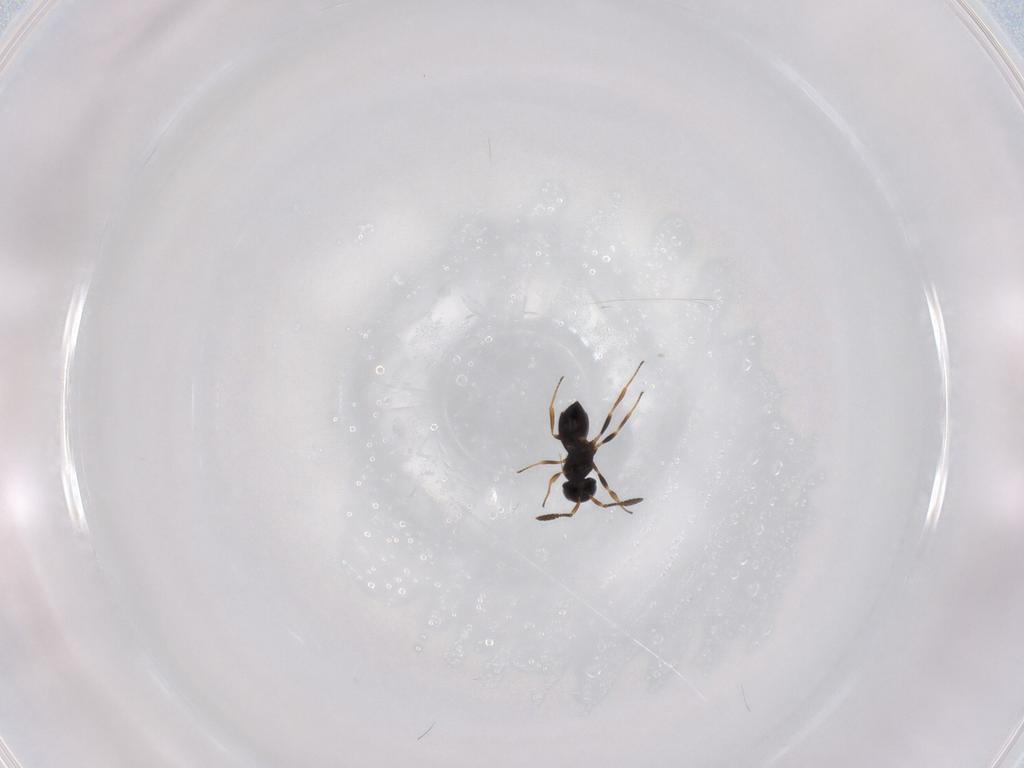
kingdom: Animalia
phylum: Arthropoda
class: Insecta
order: Hymenoptera
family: Scelionidae
